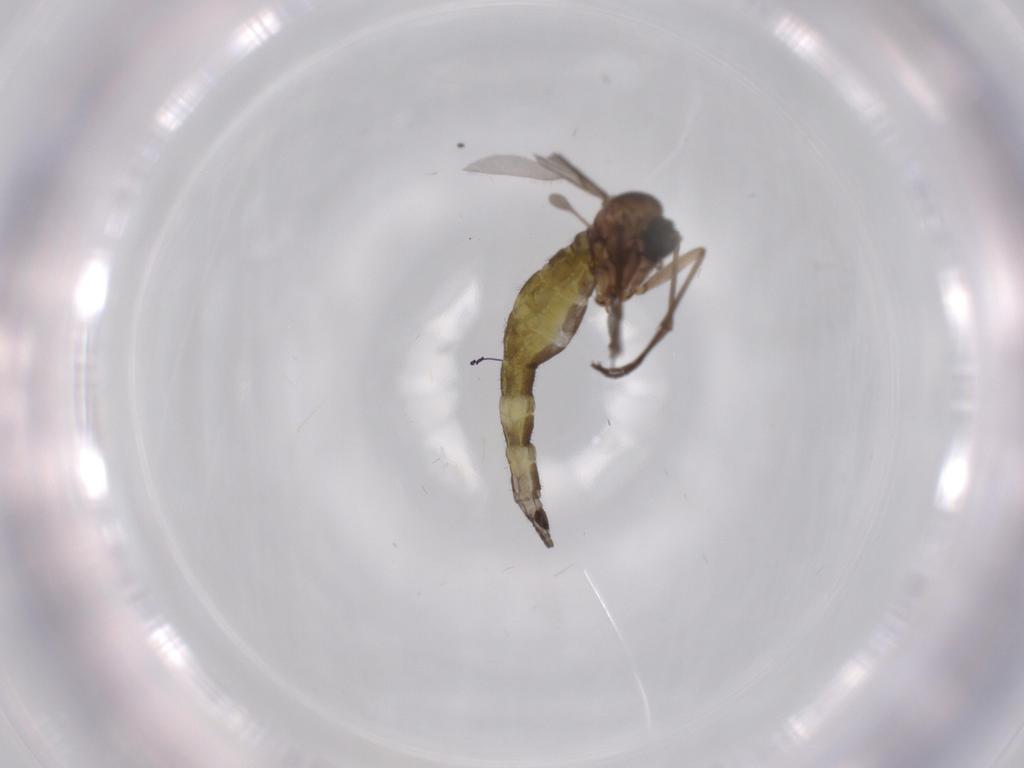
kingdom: Animalia
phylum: Arthropoda
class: Insecta
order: Diptera
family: Sciaridae
